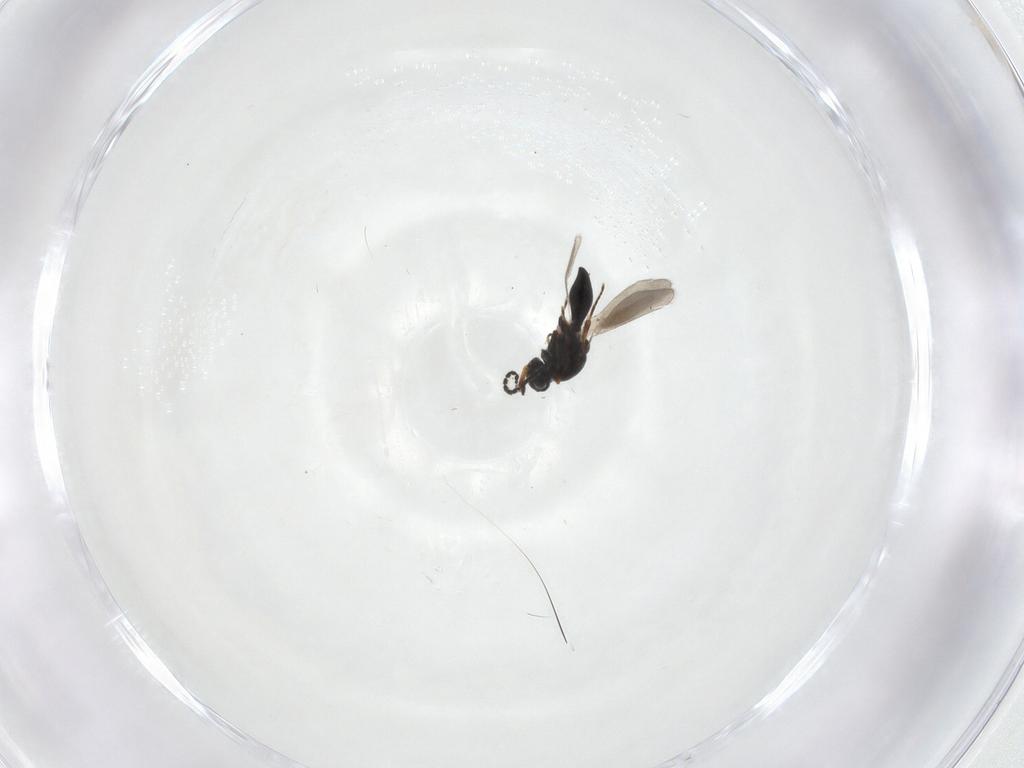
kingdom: Animalia
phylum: Arthropoda
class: Insecta
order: Hymenoptera
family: Platygastridae
